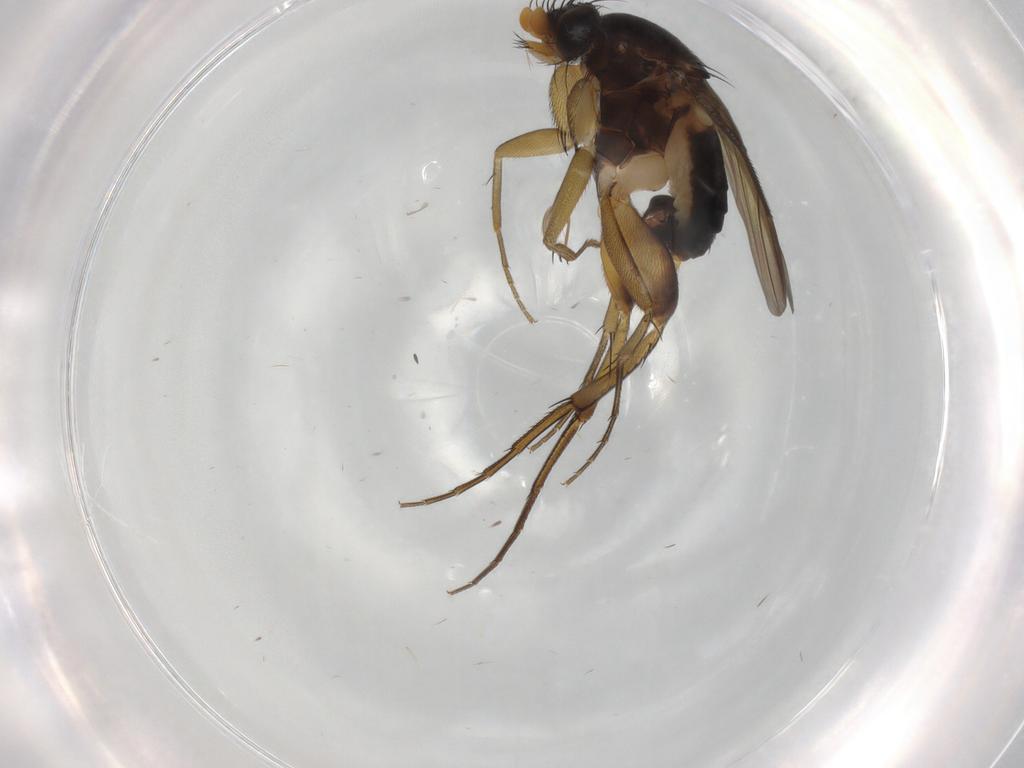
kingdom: Animalia
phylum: Arthropoda
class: Insecta
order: Diptera
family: Phoridae
